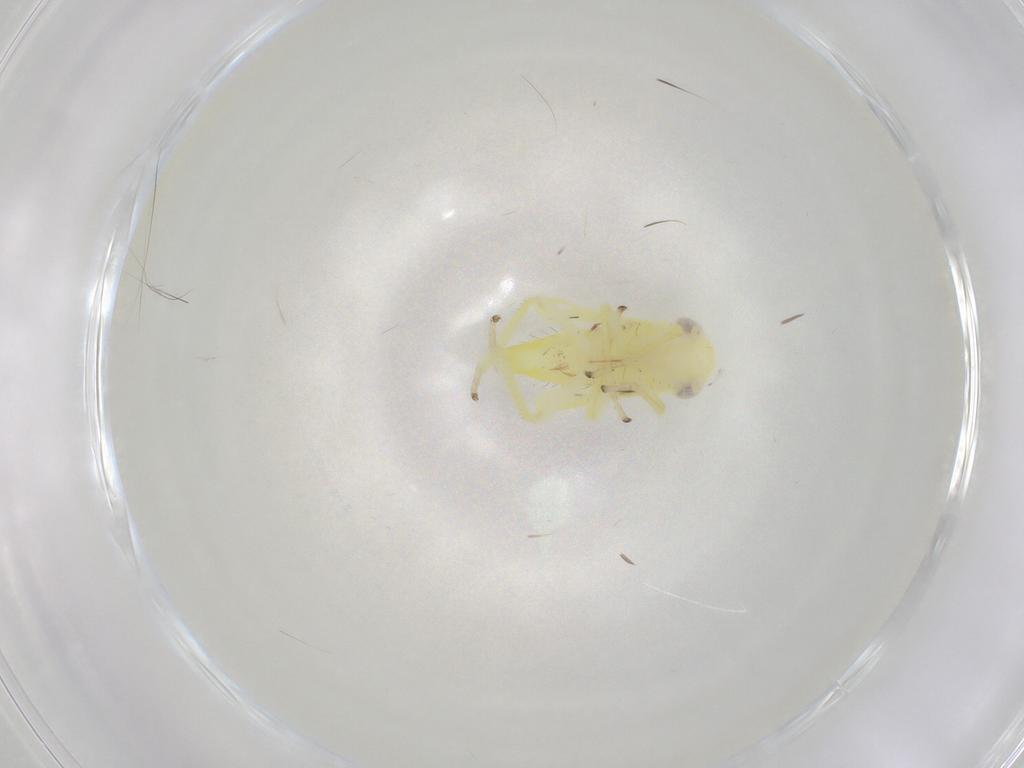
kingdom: Animalia
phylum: Arthropoda
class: Insecta
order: Hemiptera
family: Cicadellidae
